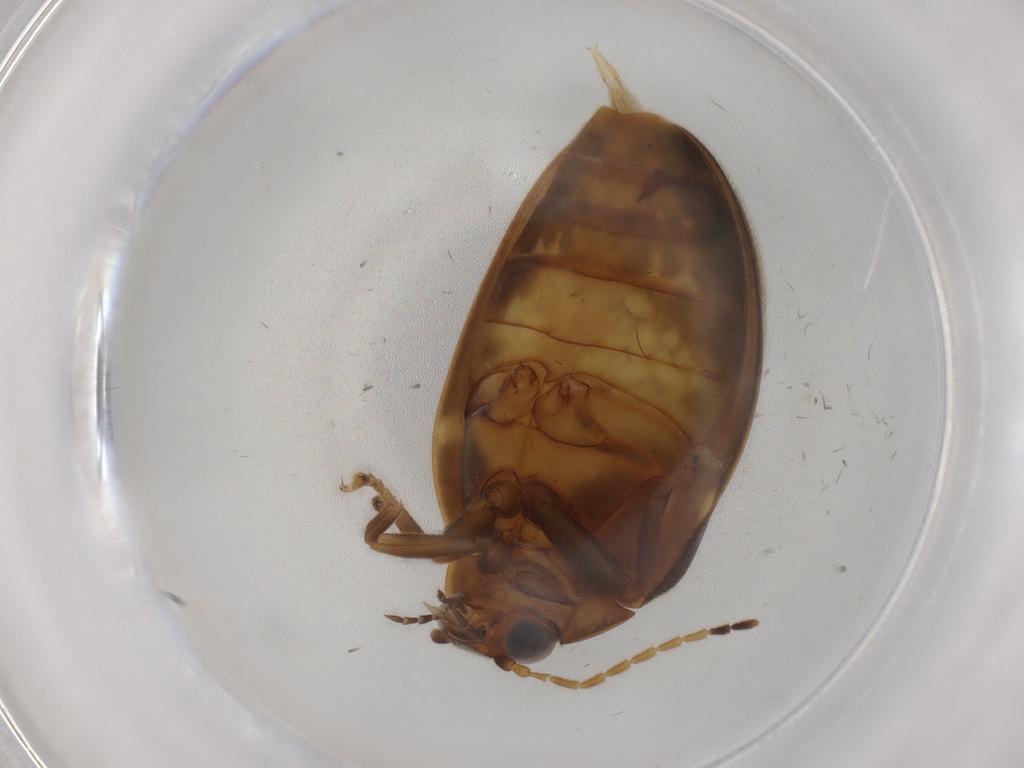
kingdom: Animalia
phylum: Arthropoda
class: Insecta
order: Coleoptera
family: Scirtidae
